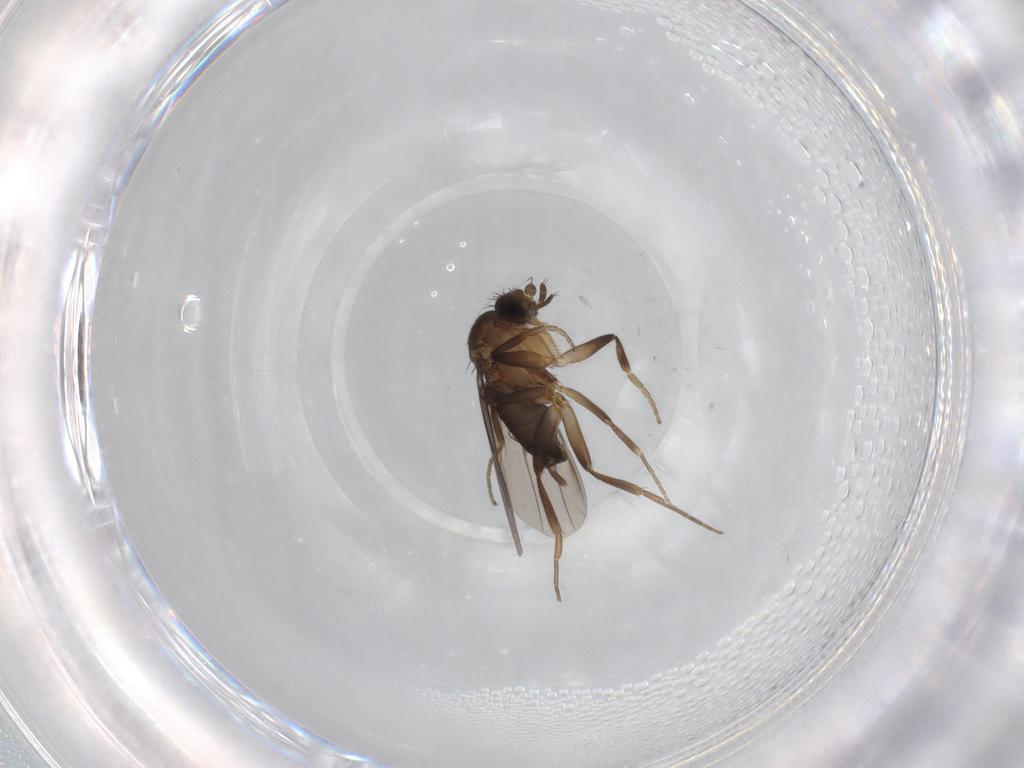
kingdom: Animalia
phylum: Arthropoda
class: Insecta
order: Diptera
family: Phoridae
